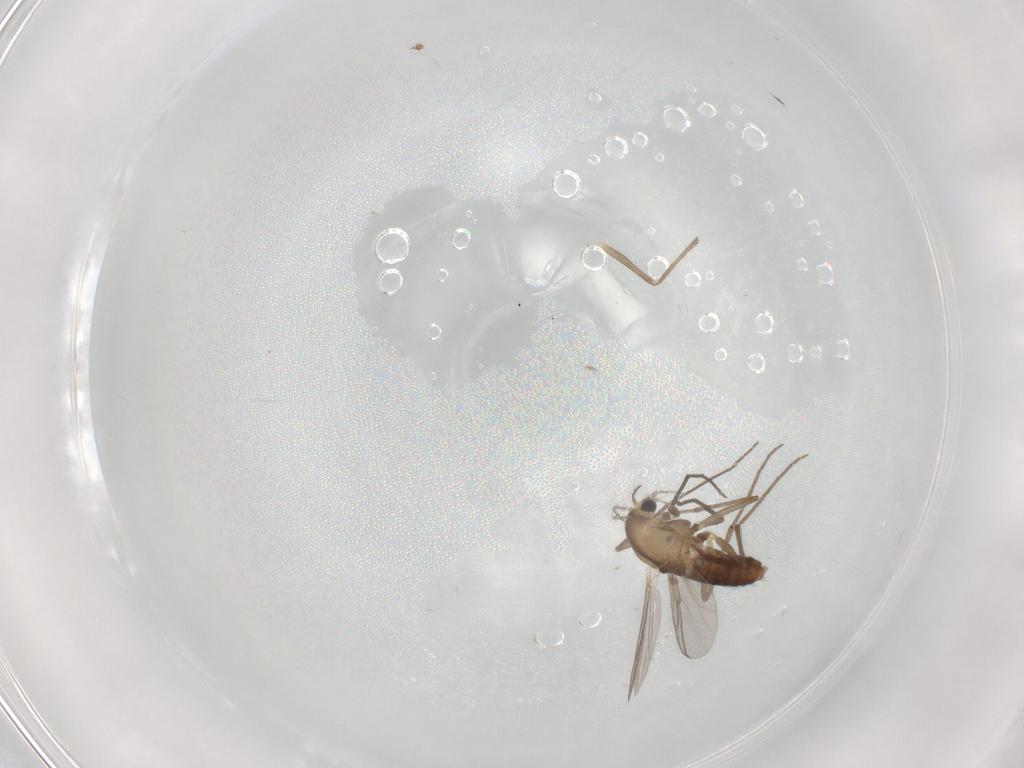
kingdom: Animalia
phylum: Arthropoda
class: Insecta
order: Diptera
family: Chironomidae
